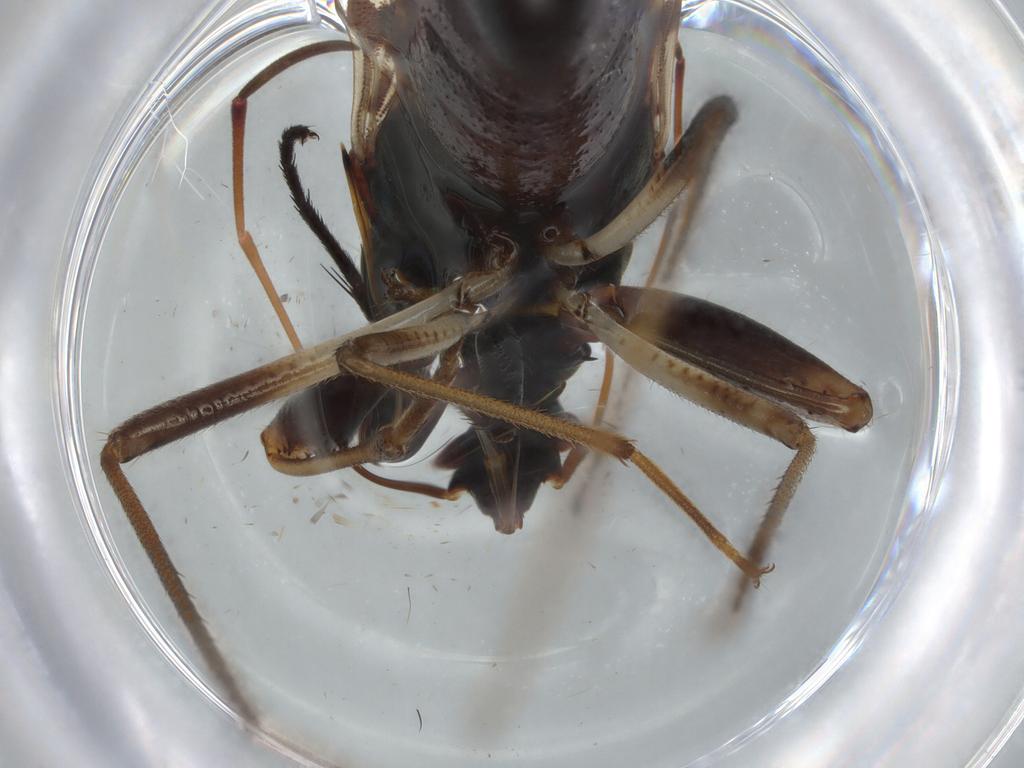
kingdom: Animalia
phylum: Arthropoda
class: Insecta
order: Hemiptera
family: Rhyparochromidae
